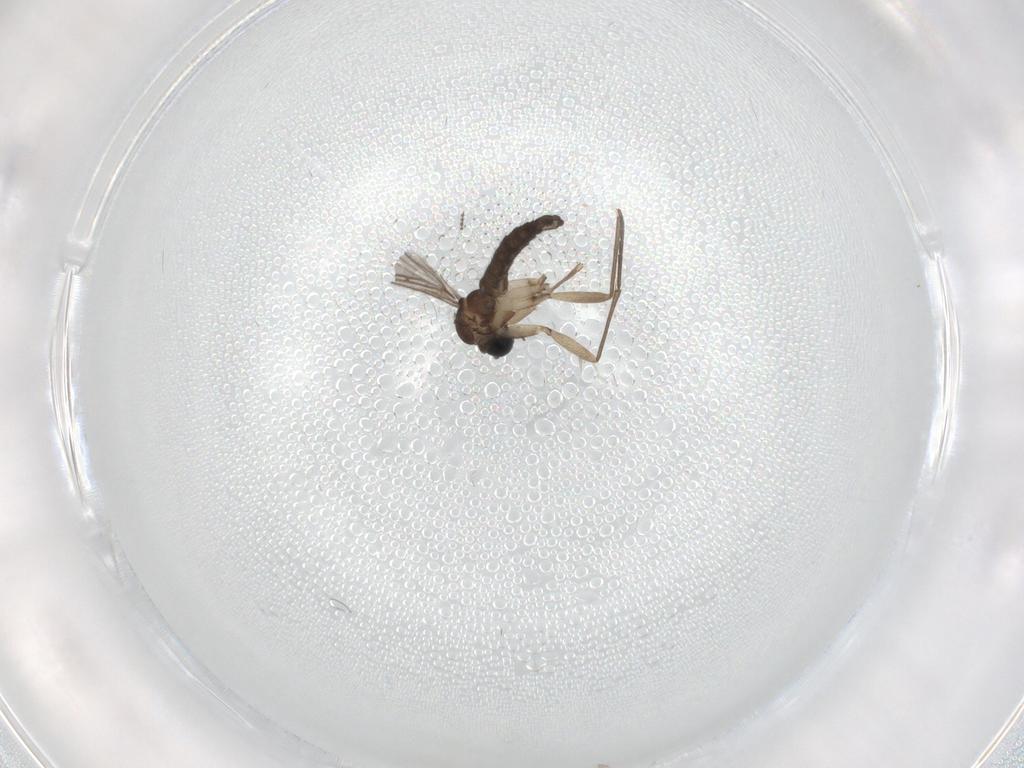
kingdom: Animalia
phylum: Arthropoda
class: Insecta
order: Diptera
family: Sciaridae
